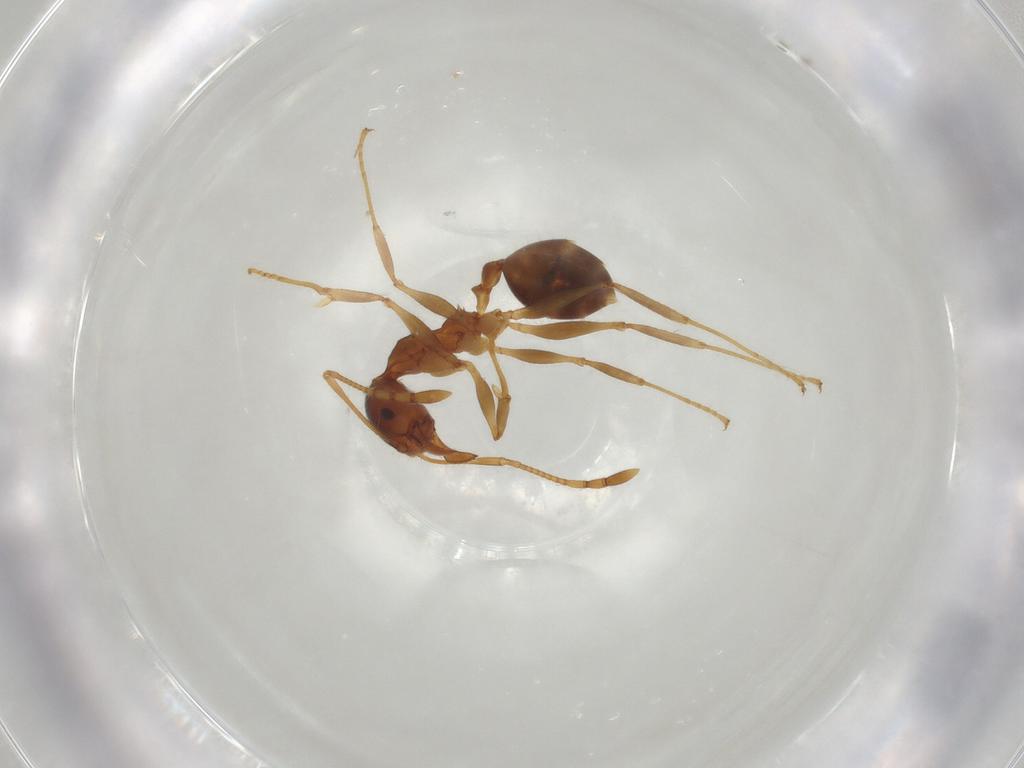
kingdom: Animalia
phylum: Arthropoda
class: Insecta
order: Hymenoptera
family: Formicidae
